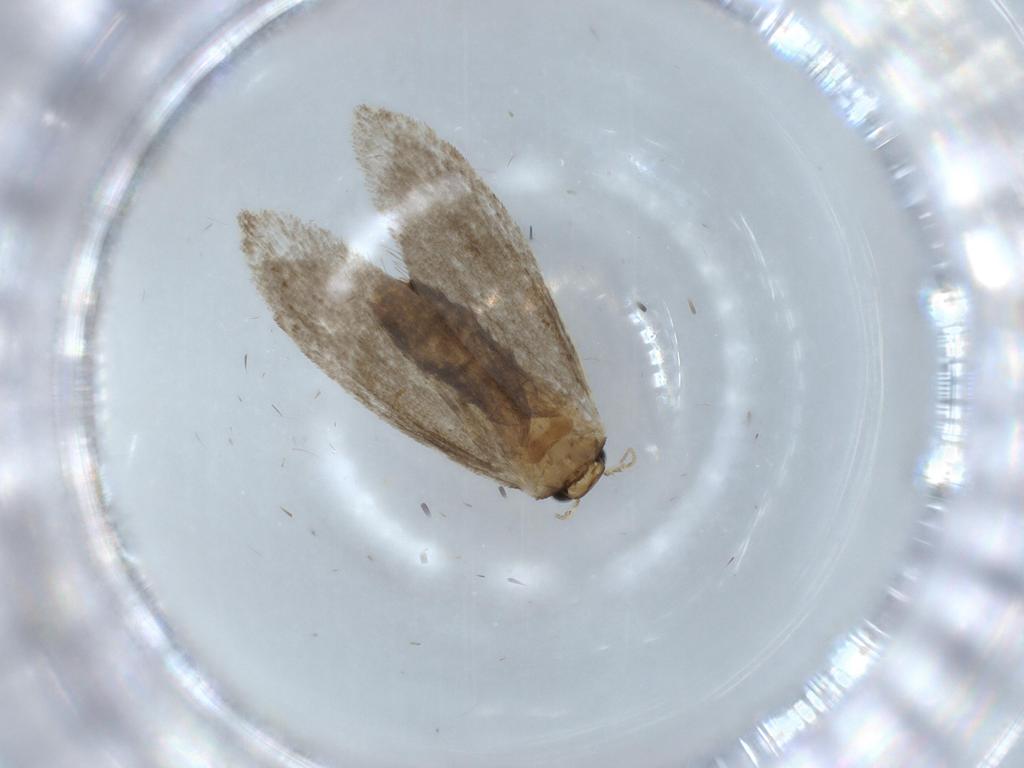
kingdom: Animalia
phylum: Arthropoda
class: Insecta
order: Lepidoptera
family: Tineidae
